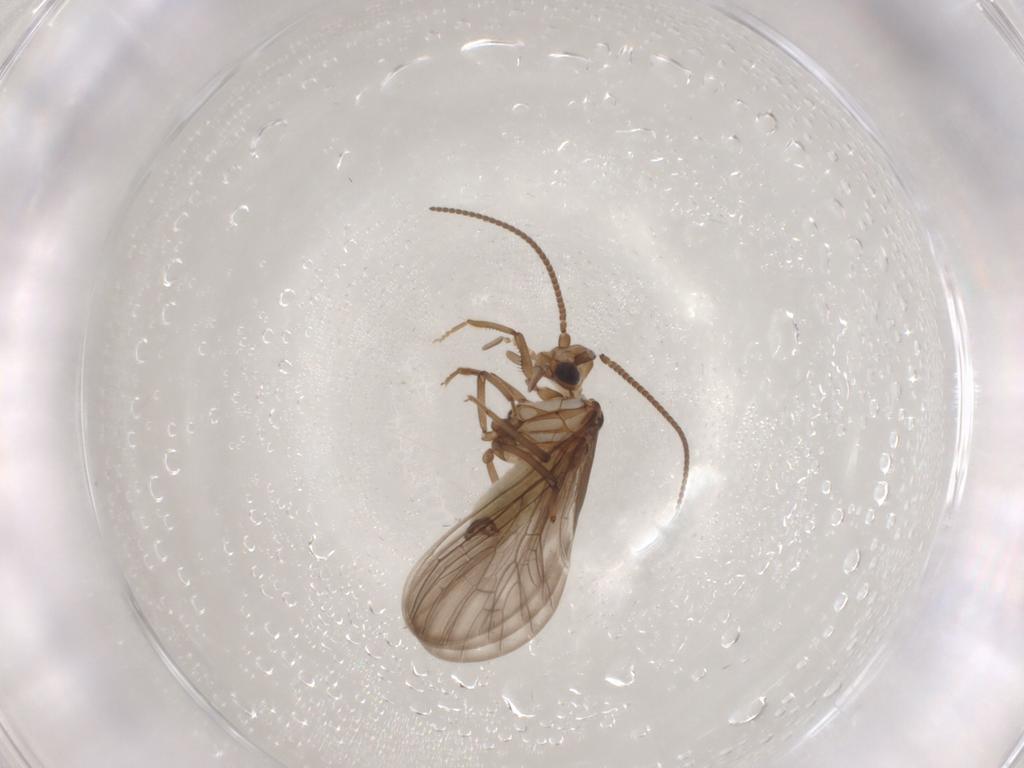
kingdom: Animalia
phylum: Arthropoda
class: Insecta
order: Neuroptera
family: Coniopterygidae
